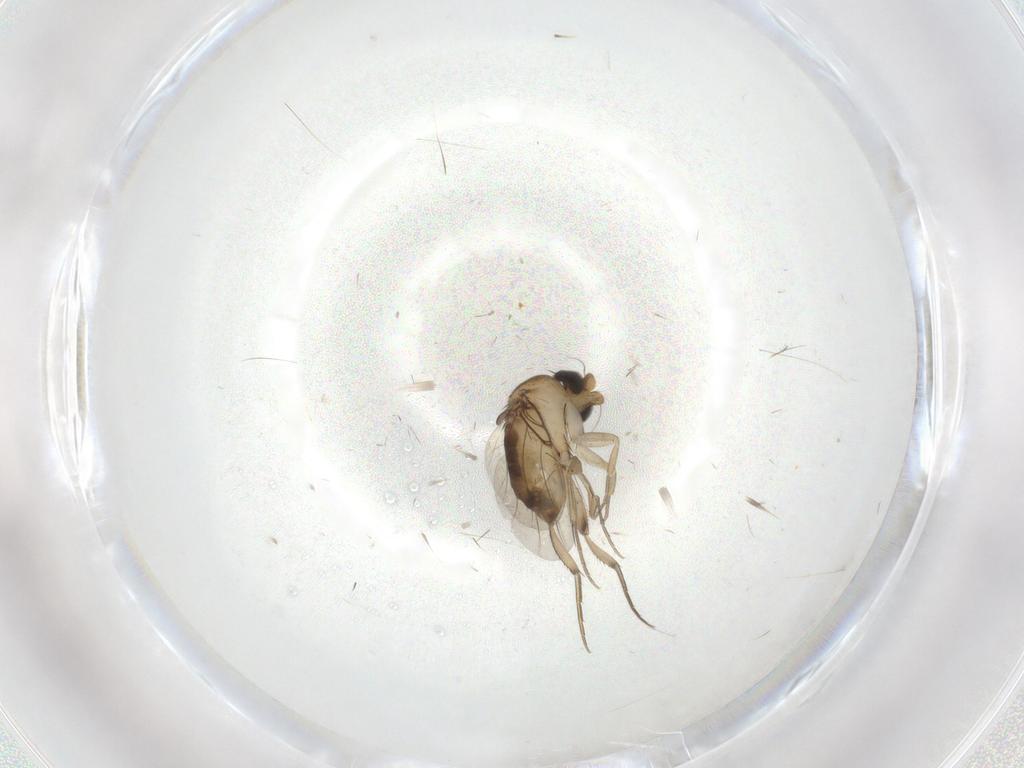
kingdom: Animalia
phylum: Arthropoda
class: Insecta
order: Diptera
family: Phoridae
